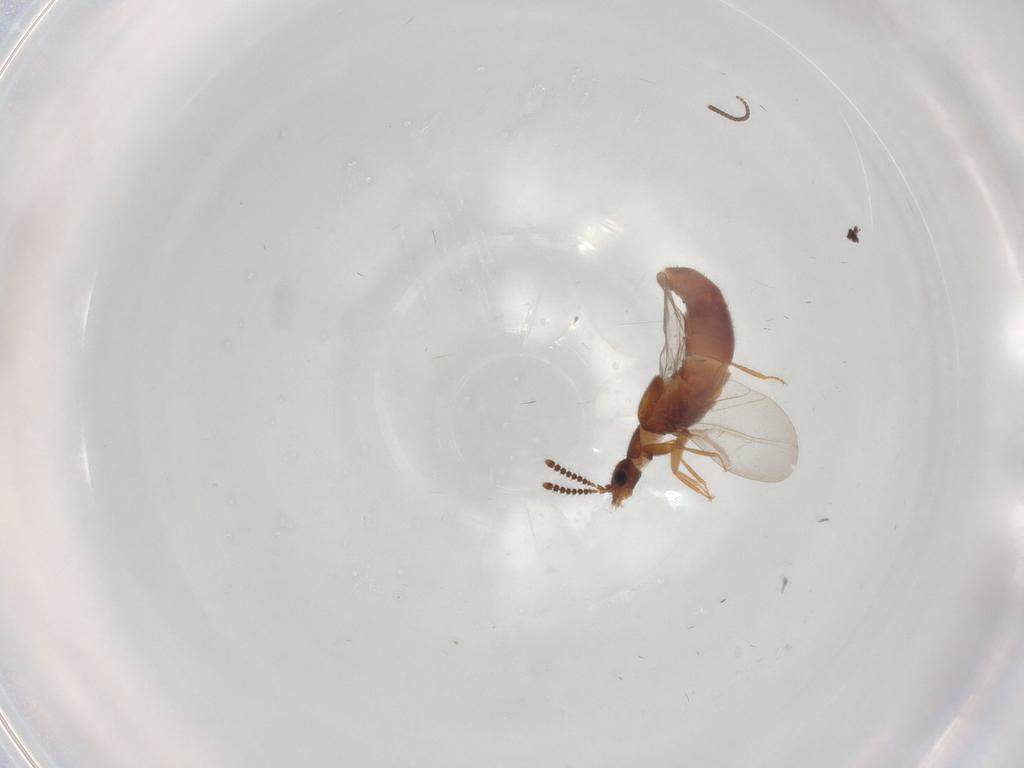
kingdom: Animalia
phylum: Arthropoda
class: Insecta
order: Coleoptera
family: Staphylinidae
